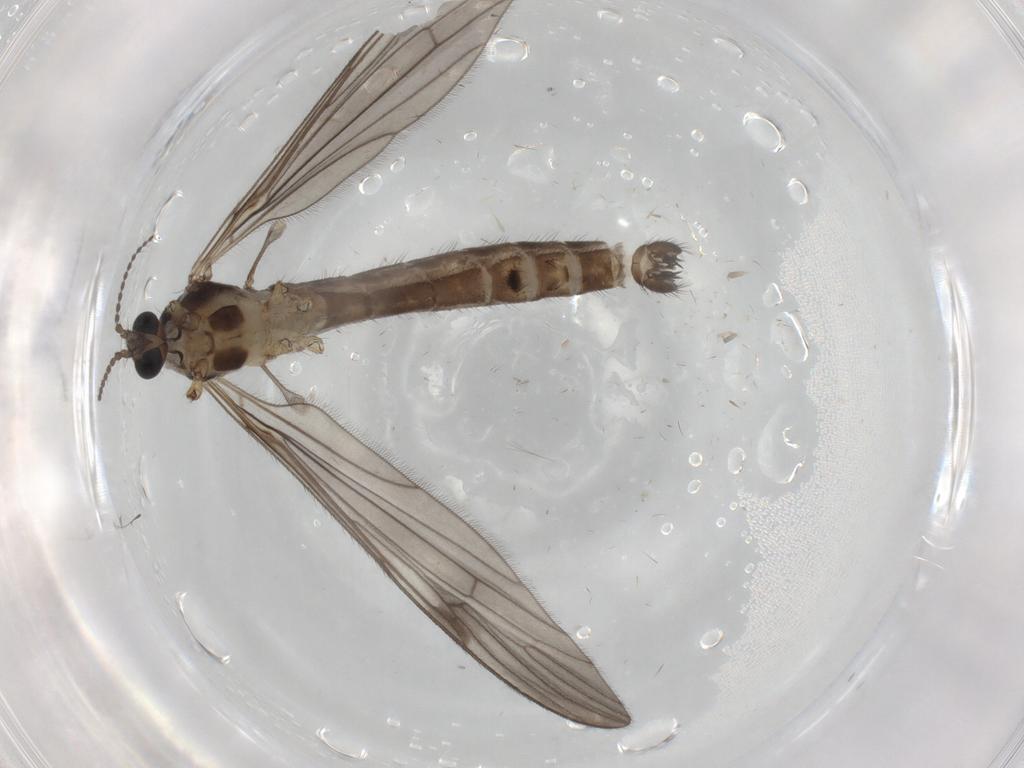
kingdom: Animalia
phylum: Arthropoda
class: Insecta
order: Diptera
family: Limoniidae
